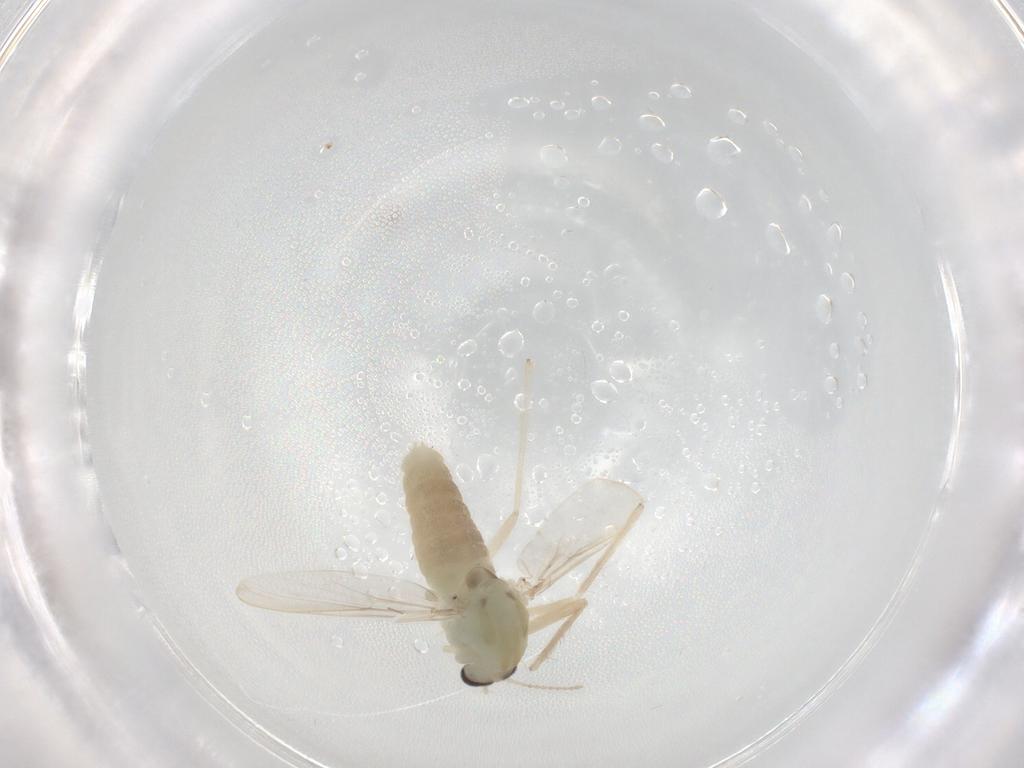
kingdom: Animalia
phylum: Arthropoda
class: Insecta
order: Diptera
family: Chironomidae
